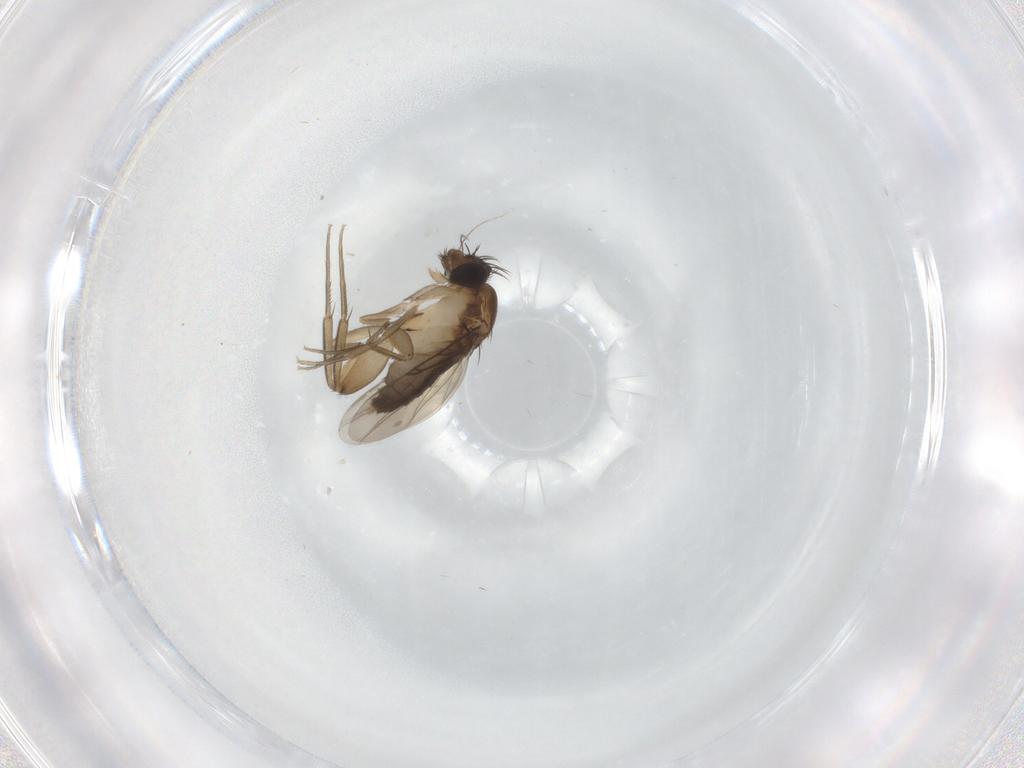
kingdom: Animalia
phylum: Arthropoda
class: Insecta
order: Diptera
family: Phoridae
